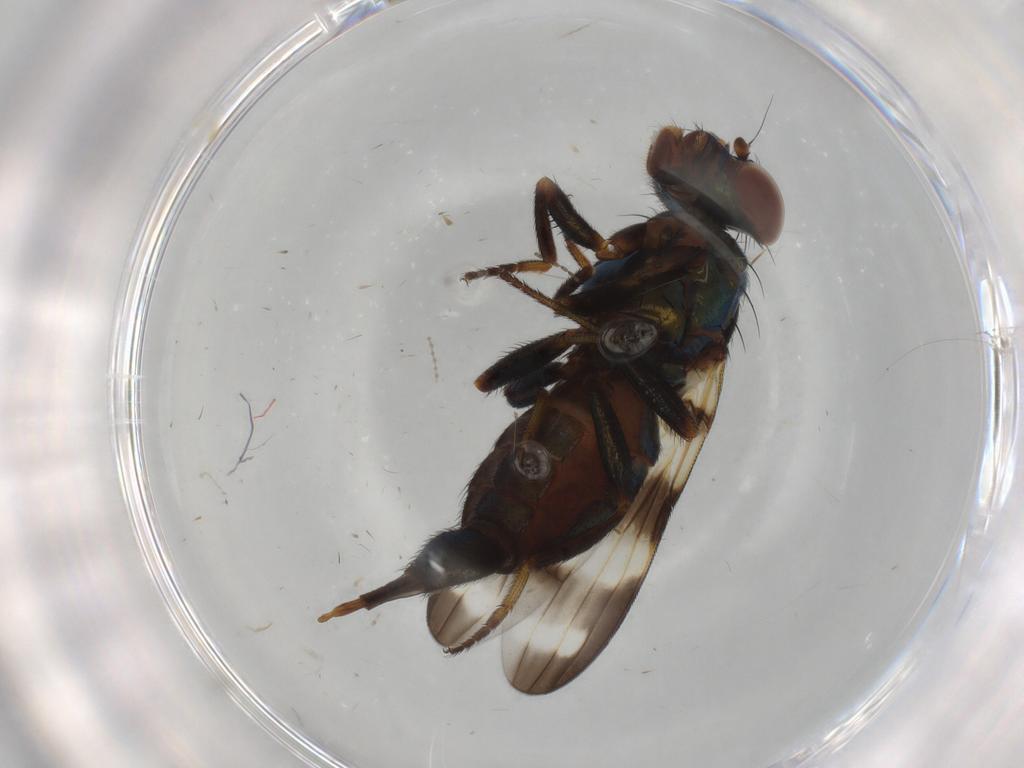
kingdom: Animalia
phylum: Arthropoda
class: Insecta
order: Diptera
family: Ulidiidae
